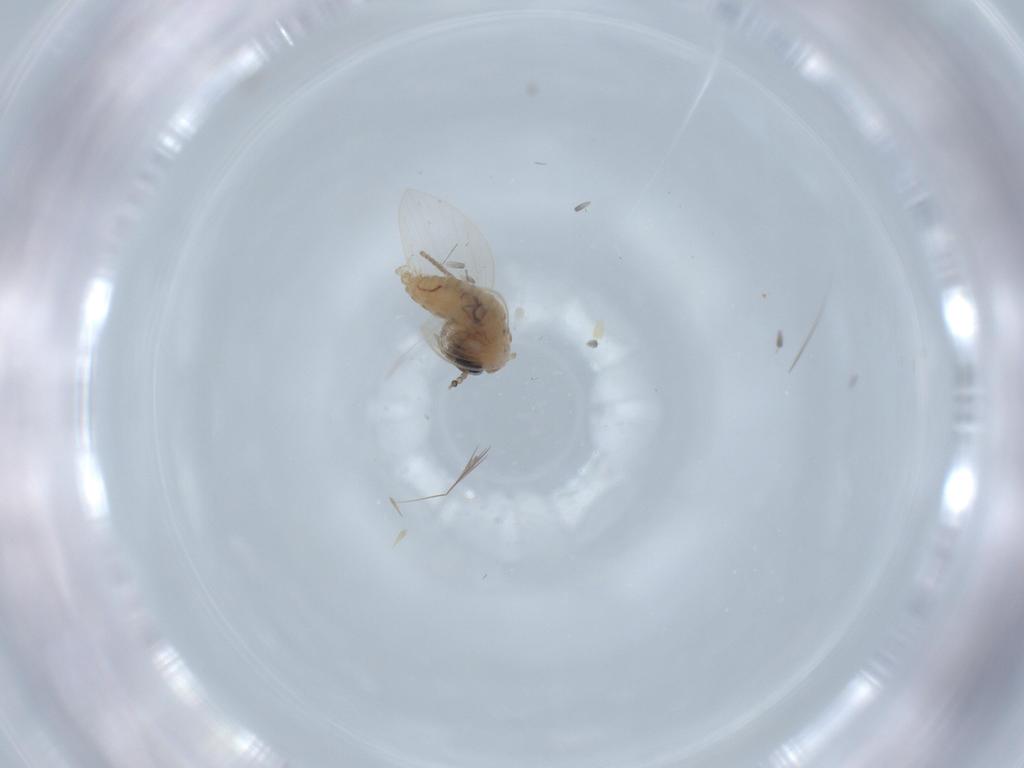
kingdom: Animalia
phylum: Arthropoda
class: Insecta
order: Diptera
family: Psychodidae
